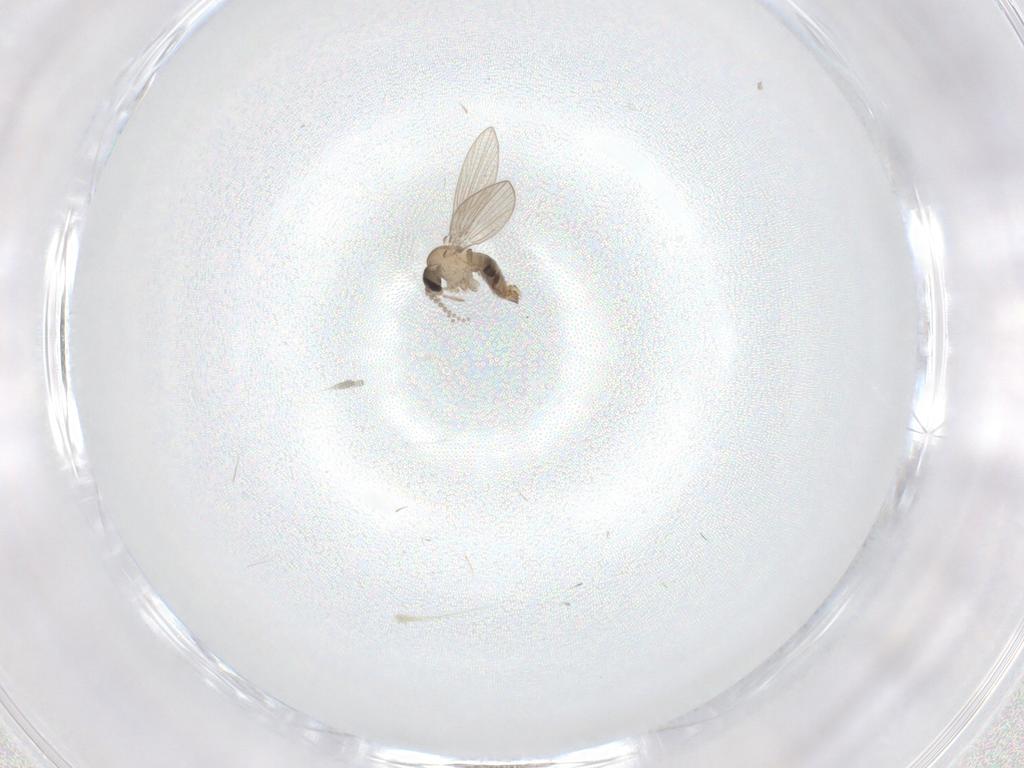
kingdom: Animalia
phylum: Arthropoda
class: Insecta
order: Diptera
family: Psychodidae
